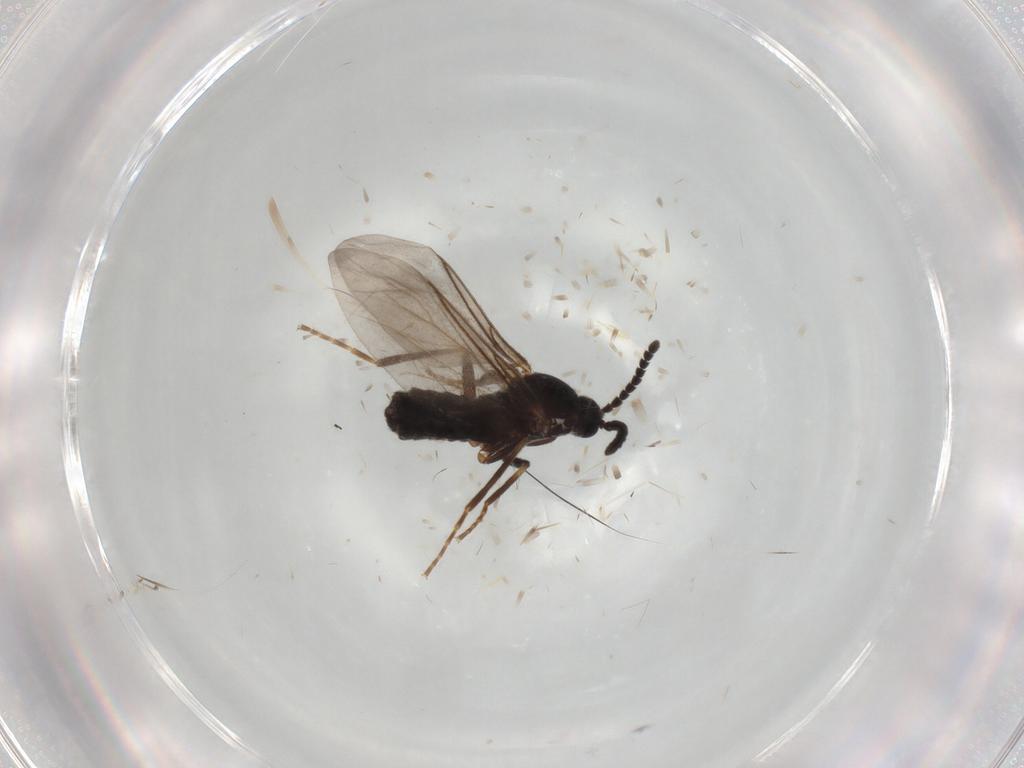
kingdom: Animalia
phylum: Arthropoda
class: Insecta
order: Diptera
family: Scatopsidae
